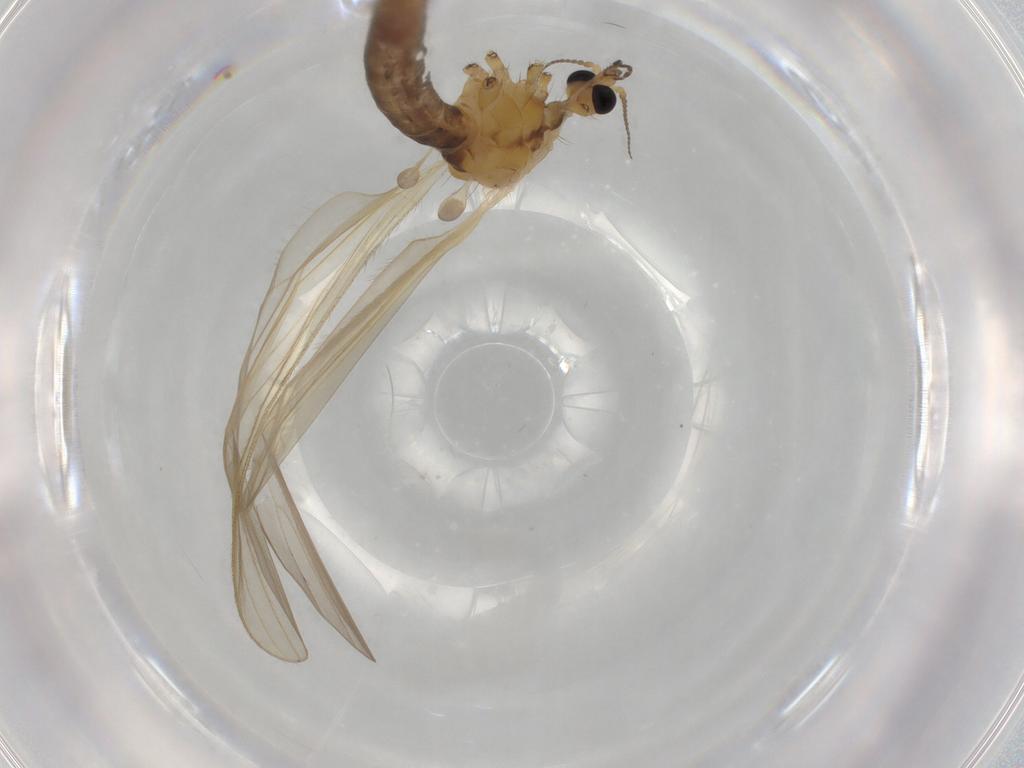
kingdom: Animalia
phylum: Arthropoda
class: Insecta
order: Diptera
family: Cecidomyiidae
